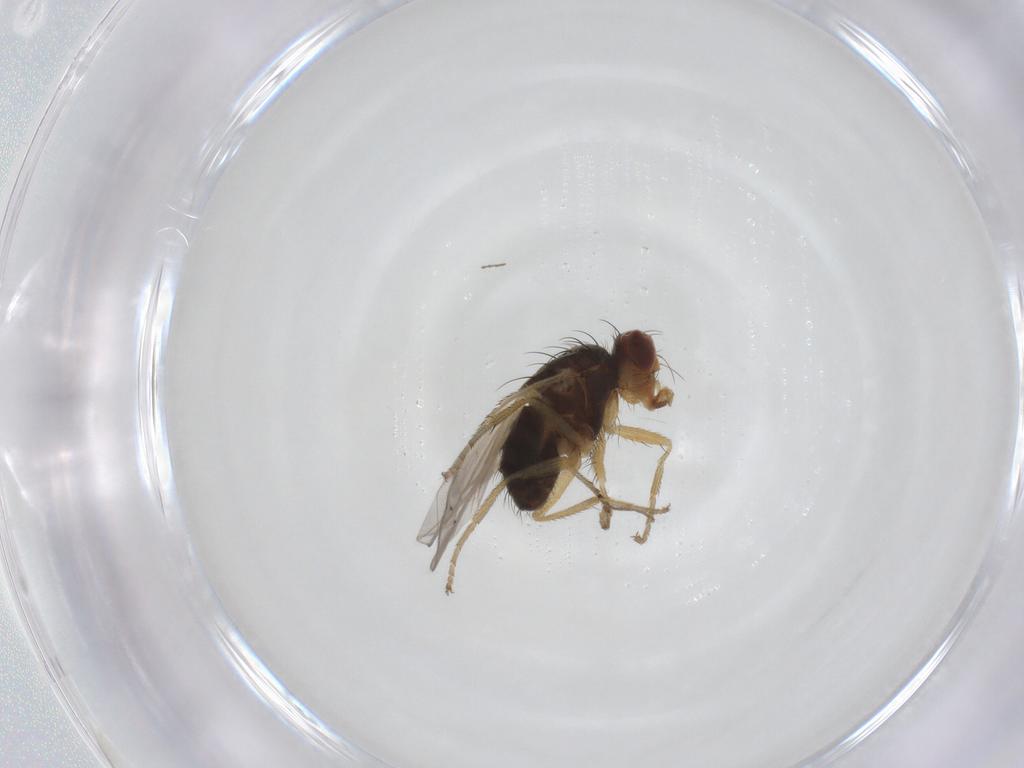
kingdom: Animalia
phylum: Arthropoda
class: Insecta
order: Diptera
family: Heleomyzidae
